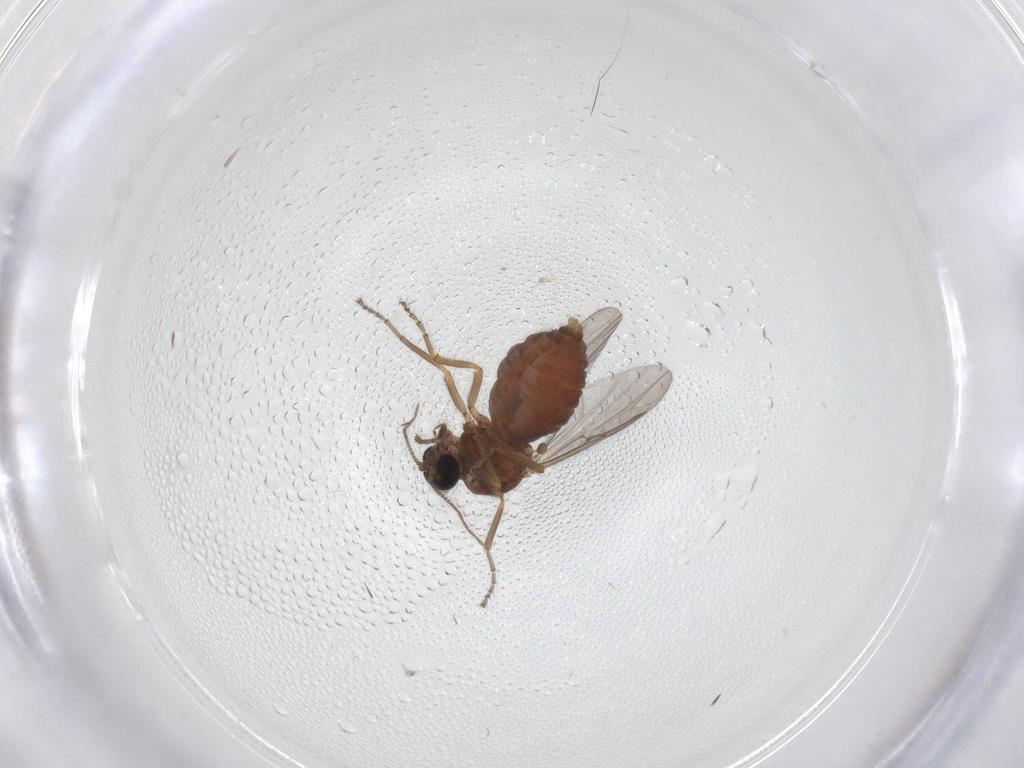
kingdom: Animalia
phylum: Arthropoda
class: Insecta
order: Diptera
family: Ceratopogonidae
